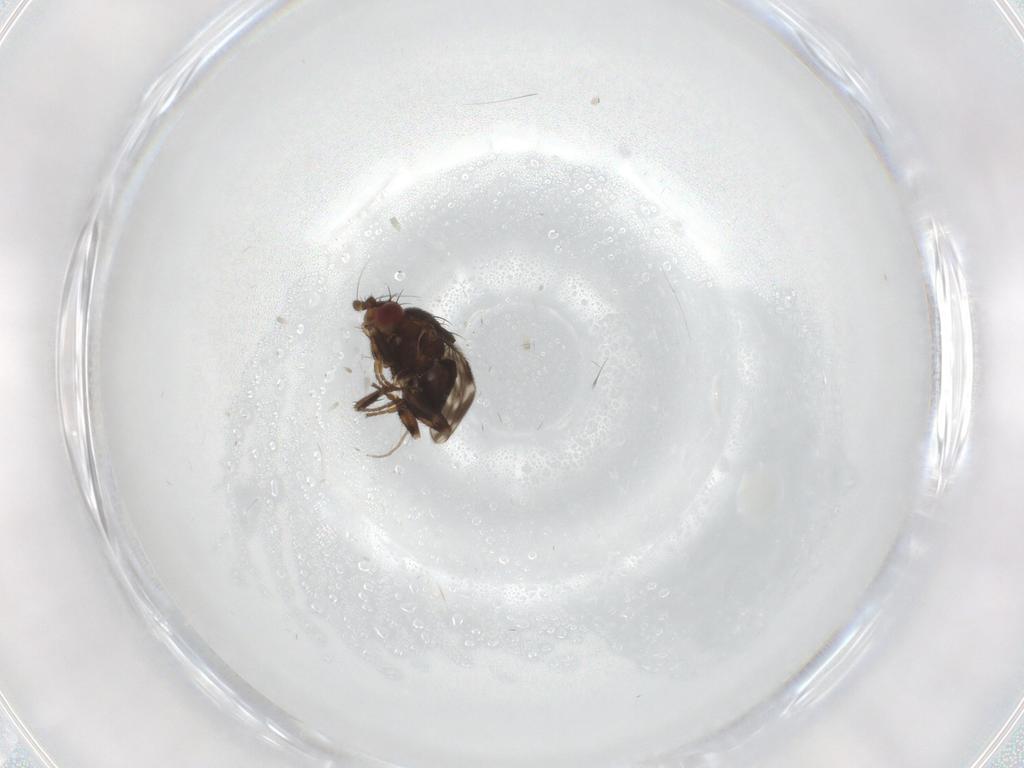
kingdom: Animalia
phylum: Arthropoda
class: Insecta
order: Diptera
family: Sphaeroceridae
